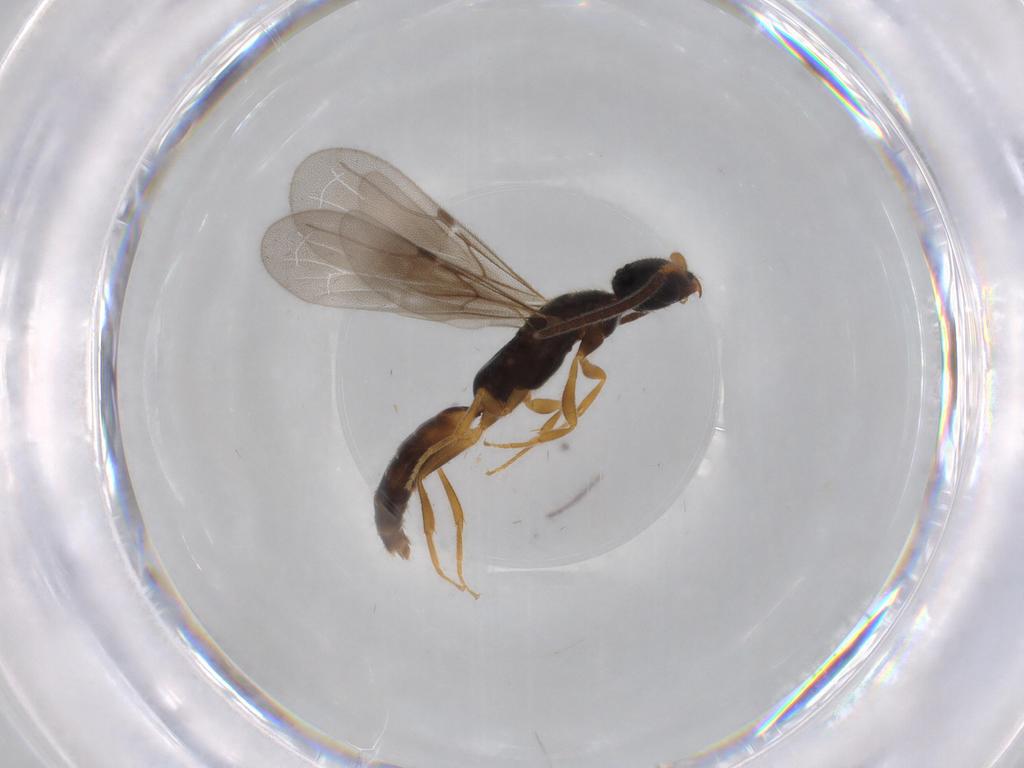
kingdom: Animalia
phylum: Arthropoda
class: Insecta
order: Hymenoptera
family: Bethylidae
